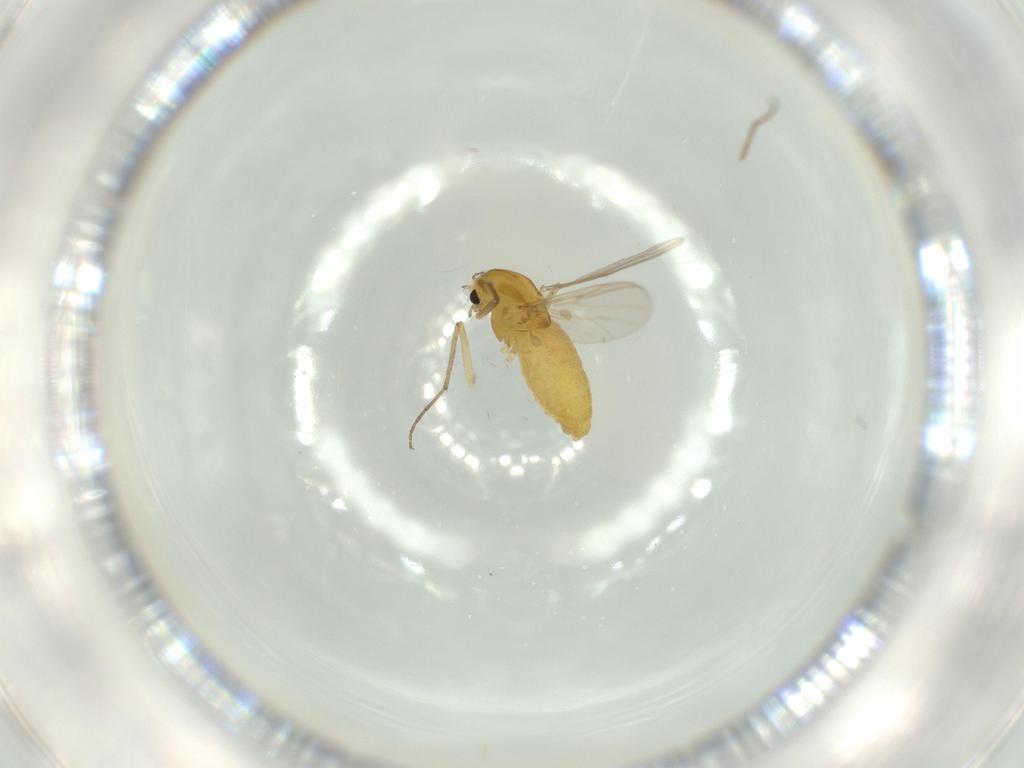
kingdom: Animalia
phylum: Arthropoda
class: Insecta
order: Diptera
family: Chironomidae
